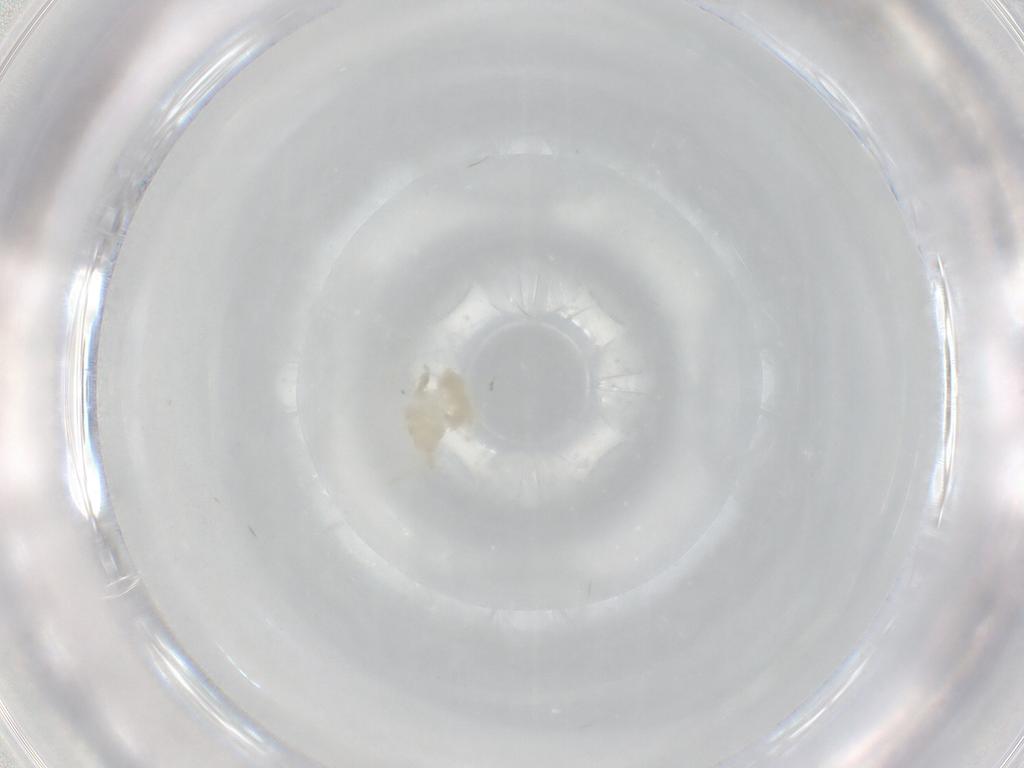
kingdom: Animalia
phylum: Arthropoda
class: Insecta
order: Diptera
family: Cecidomyiidae
